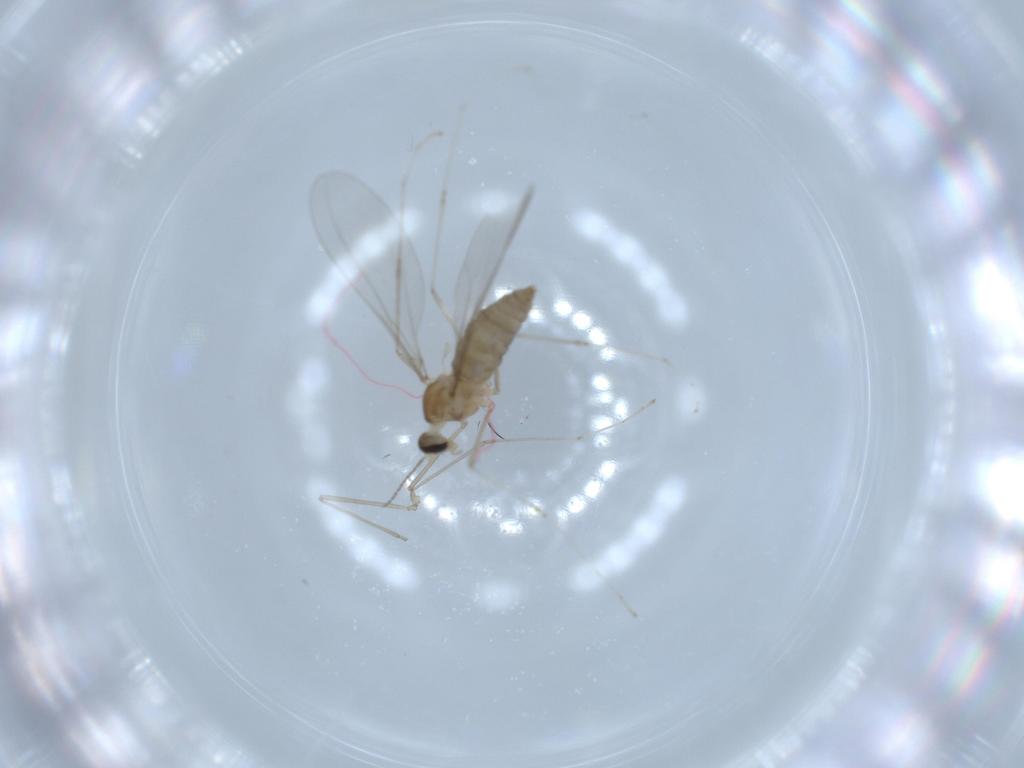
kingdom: Animalia
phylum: Arthropoda
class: Insecta
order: Diptera
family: Cecidomyiidae
